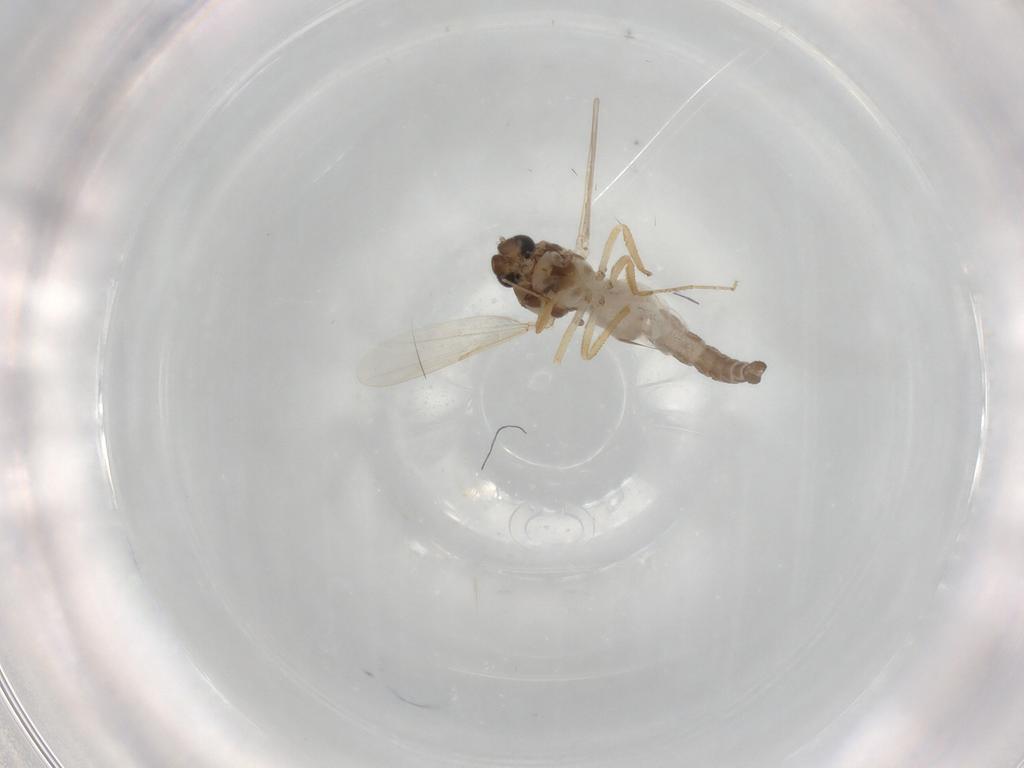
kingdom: Animalia
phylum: Arthropoda
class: Insecta
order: Diptera
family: Ceratopogonidae
